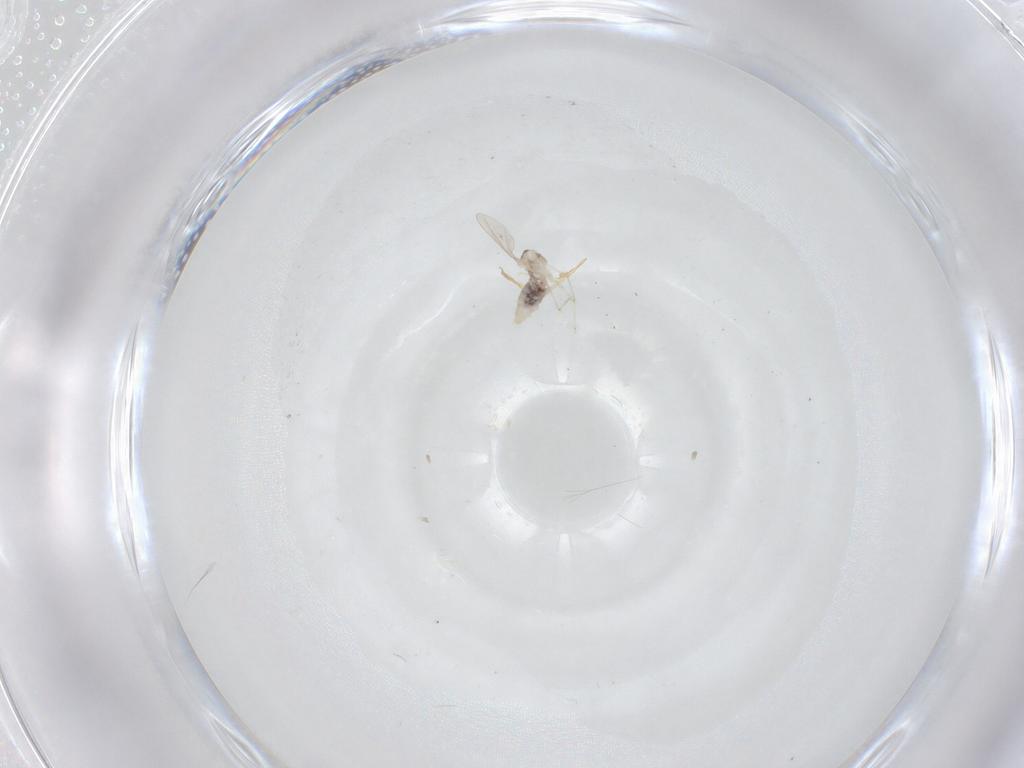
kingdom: Animalia
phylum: Arthropoda
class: Insecta
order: Diptera
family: Cecidomyiidae
